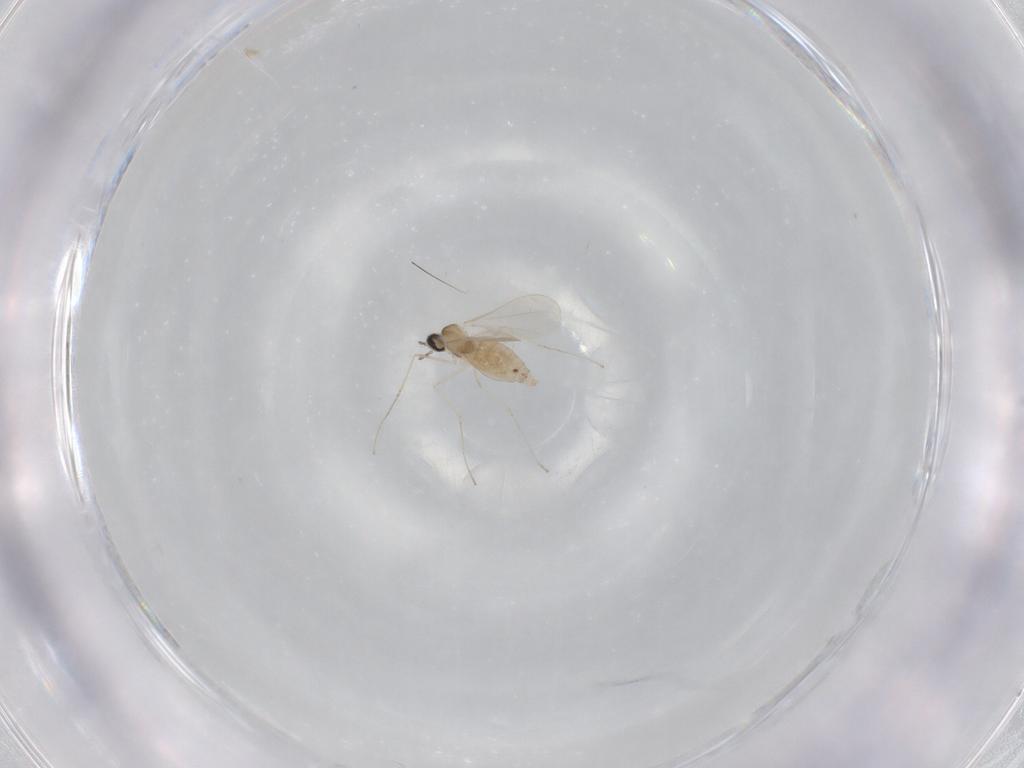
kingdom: Animalia
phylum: Arthropoda
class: Insecta
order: Diptera
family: Cecidomyiidae
